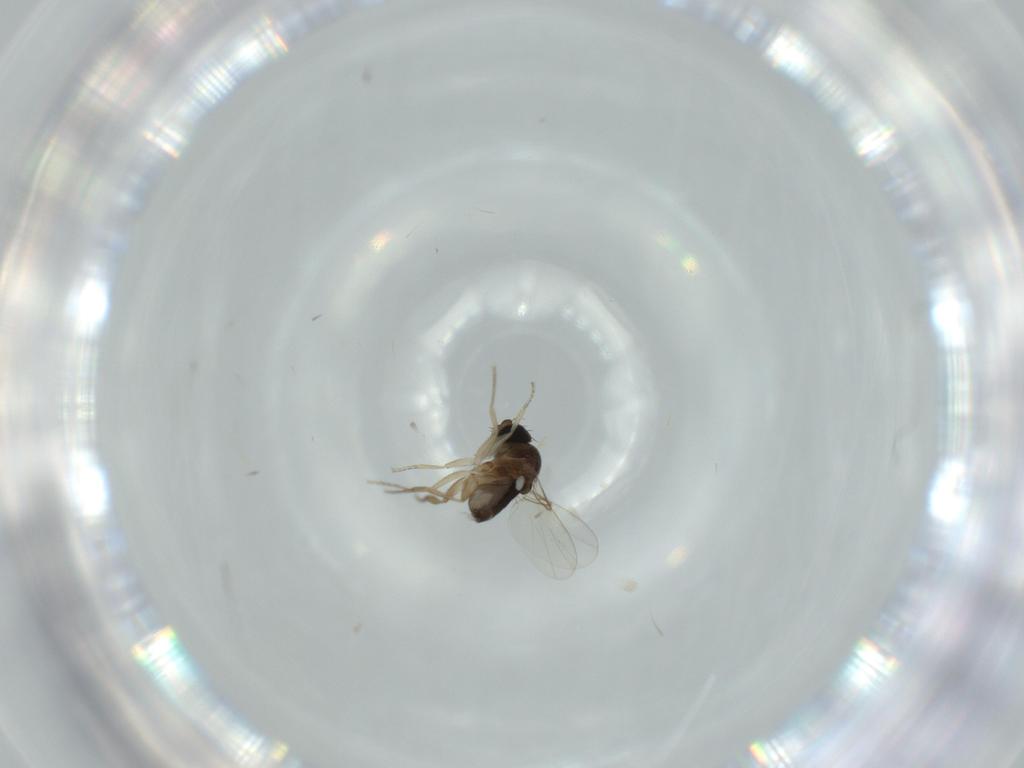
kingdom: Animalia
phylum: Arthropoda
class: Insecta
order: Diptera
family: Phoridae
